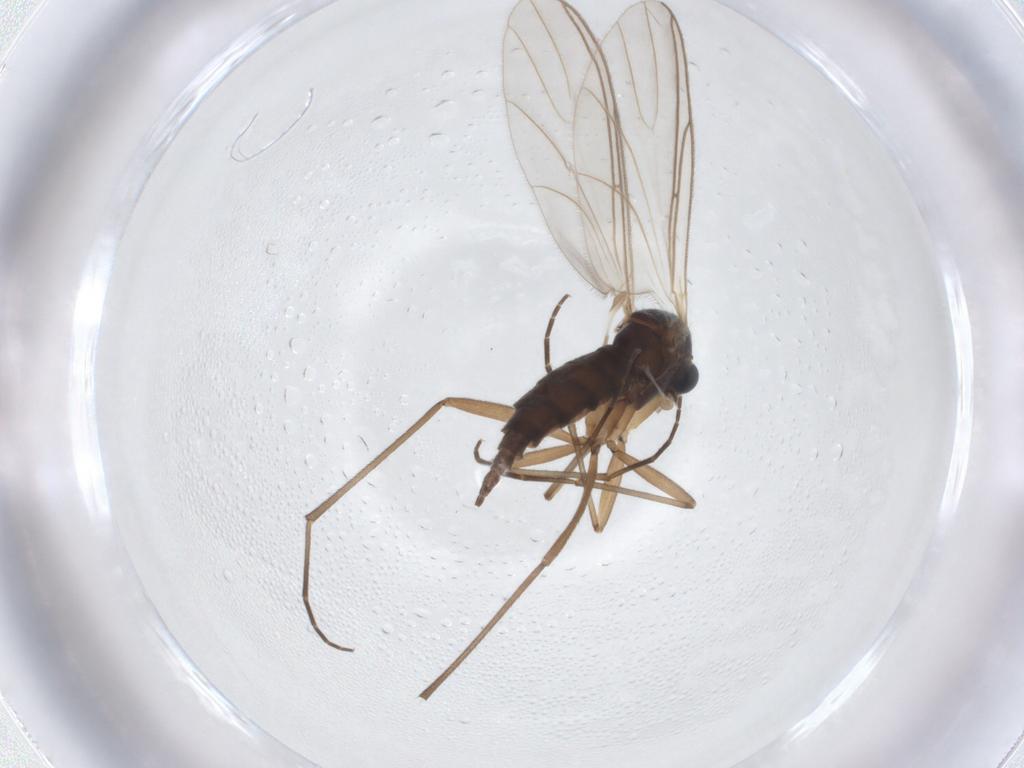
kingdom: Animalia
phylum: Arthropoda
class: Insecta
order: Diptera
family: Sciaridae
